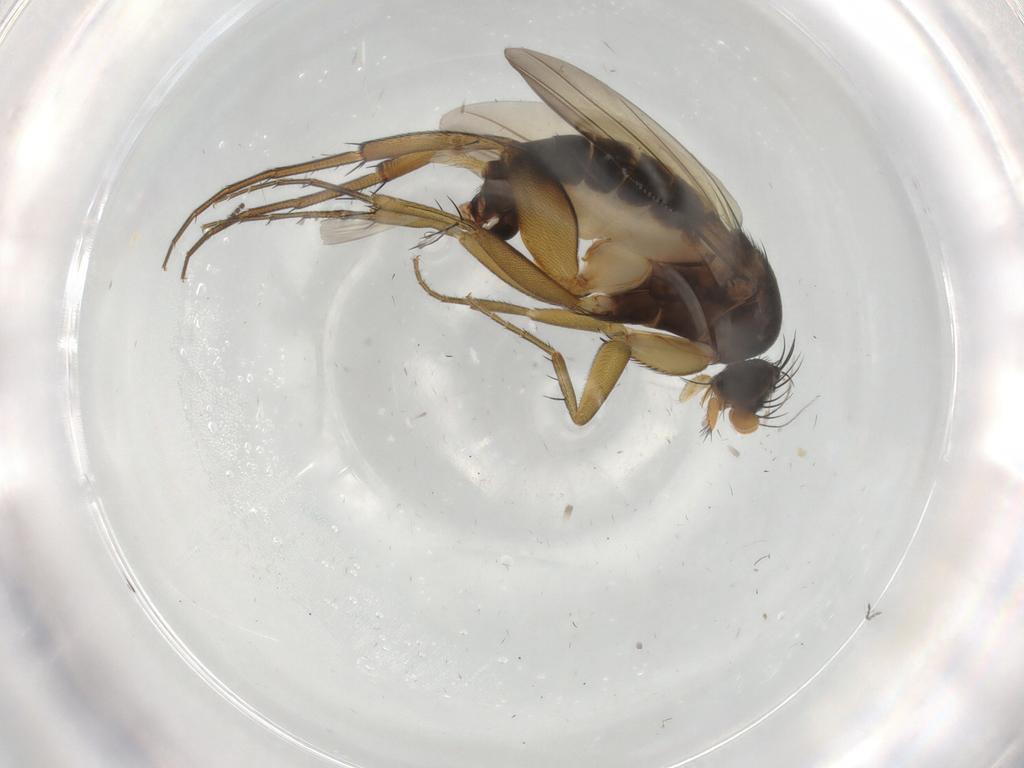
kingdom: Animalia
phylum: Arthropoda
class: Insecta
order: Diptera
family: Phoridae
